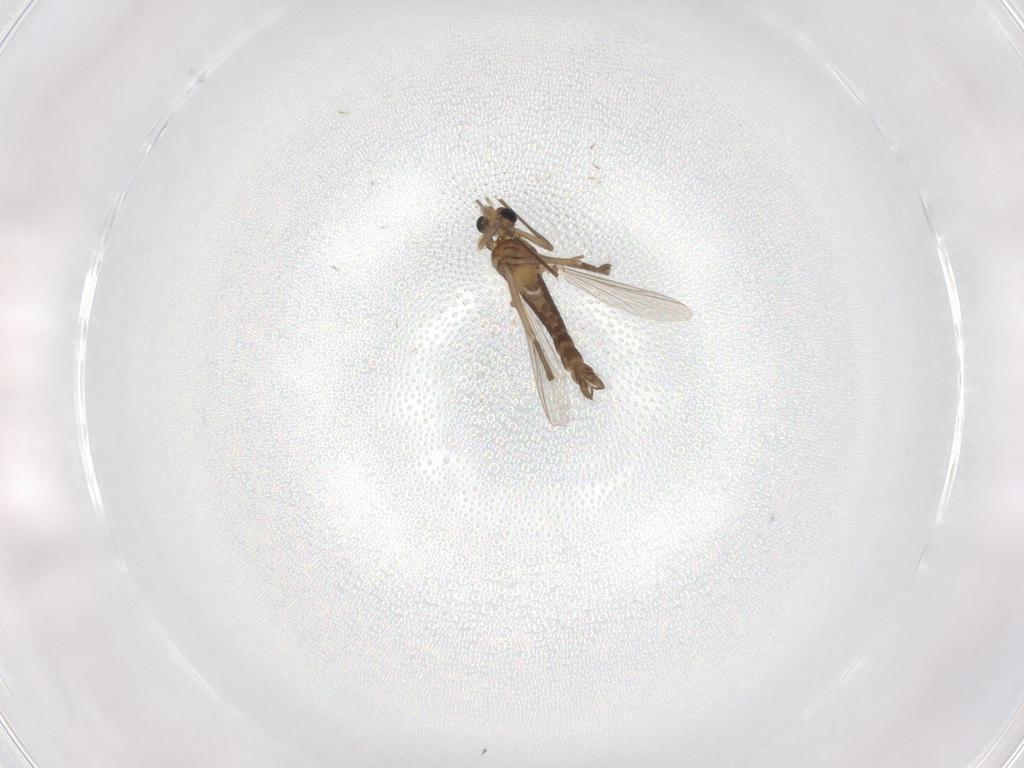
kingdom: Animalia
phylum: Arthropoda
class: Insecta
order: Diptera
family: Chironomidae
